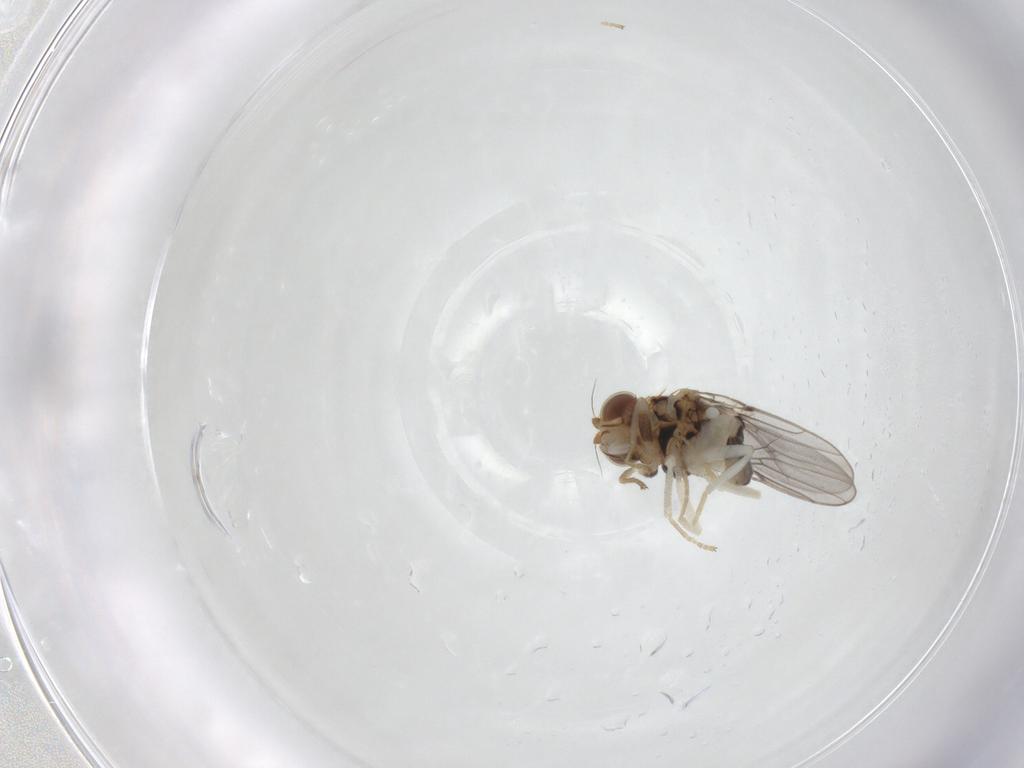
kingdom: Animalia
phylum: Arthropoda
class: Insecta
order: Diptera
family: Chloropidae
